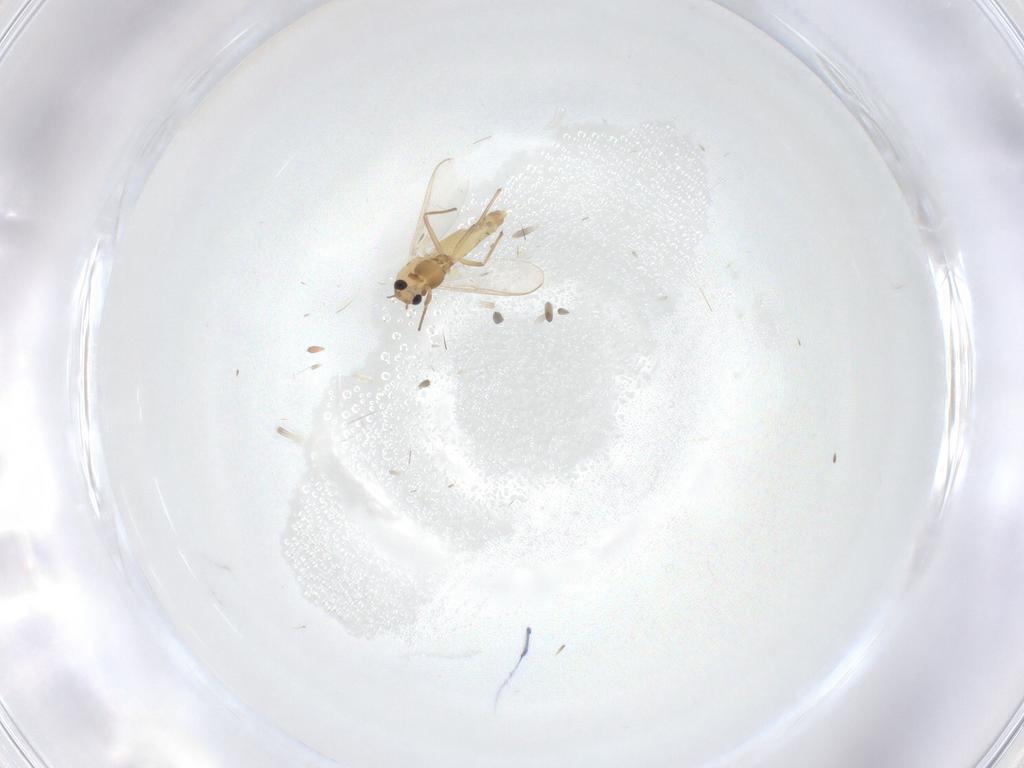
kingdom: Animalia
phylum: Arthropoda
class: Insecta
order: Diptera
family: Chironomidae
